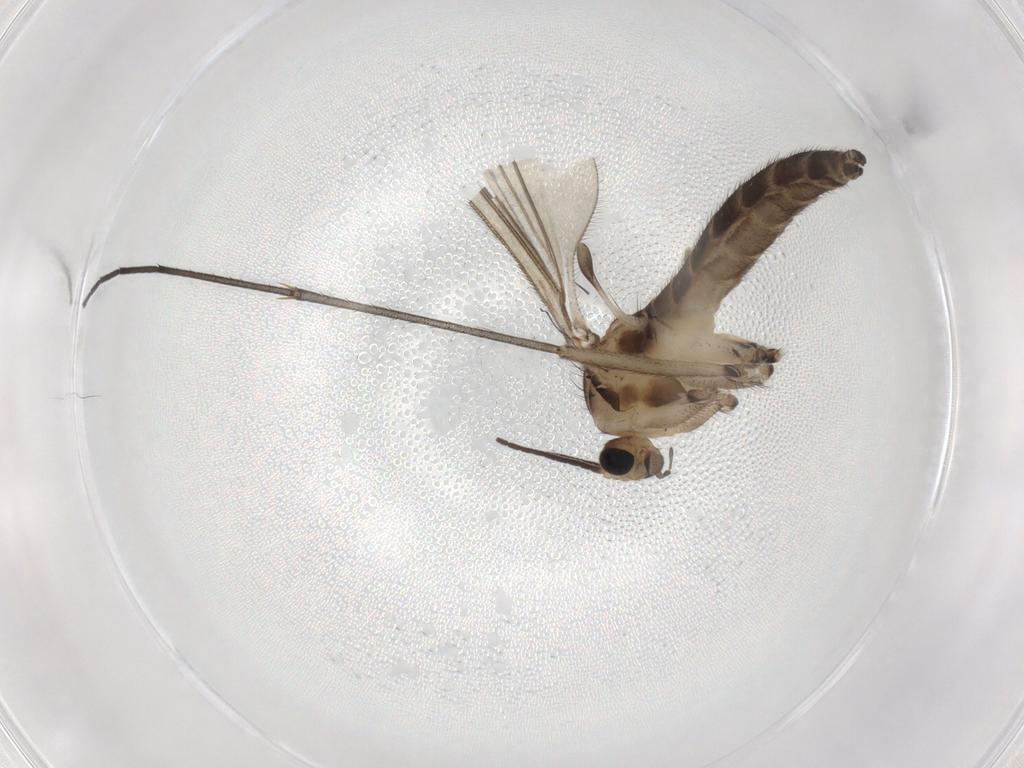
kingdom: Animalia
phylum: Arthropoda
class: Insecta
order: Diptera
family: Sciaridae
